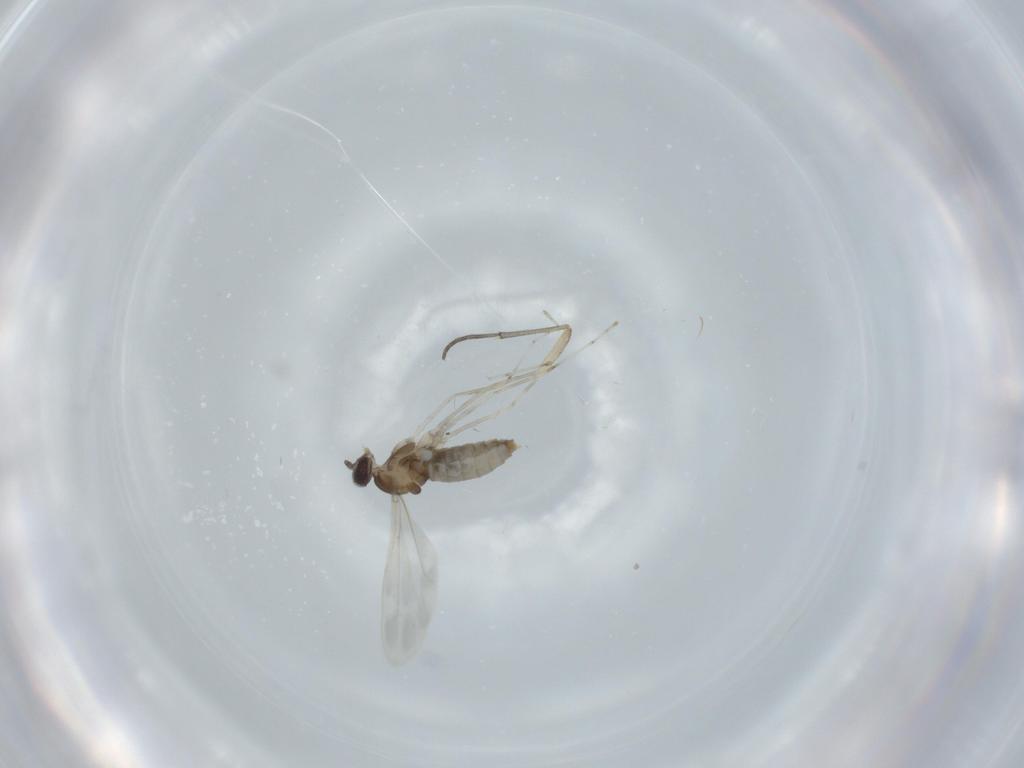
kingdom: Animalia
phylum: Arthropoda
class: Insecta
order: Diptera
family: Cecidomyiidae
